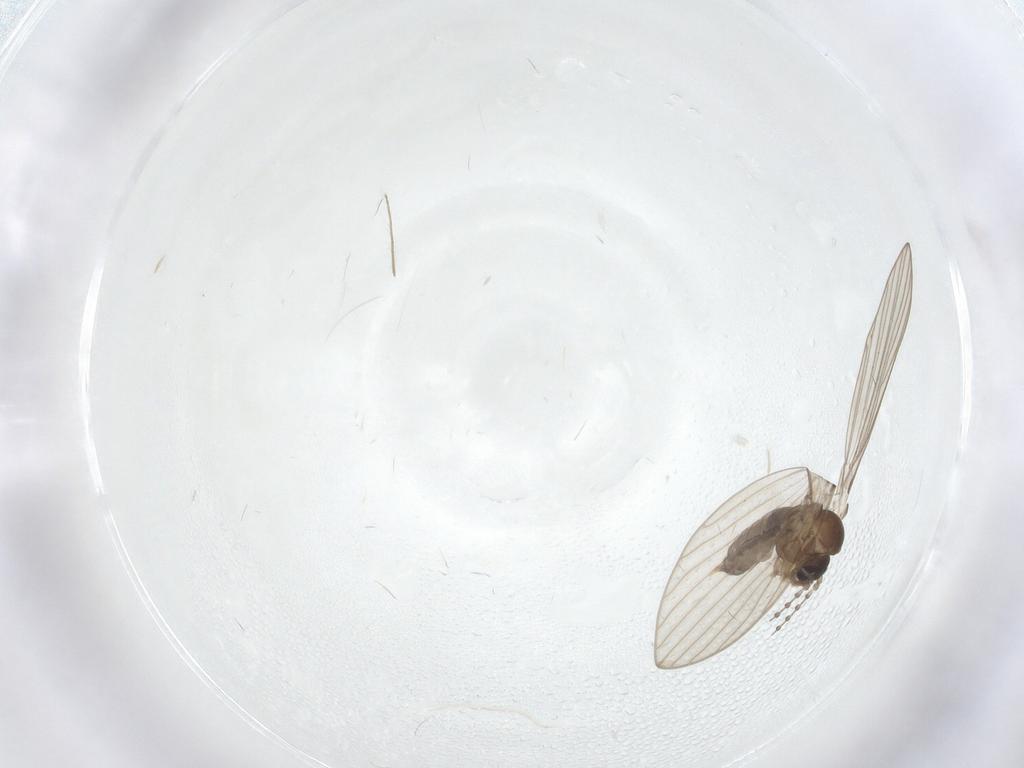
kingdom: Animalia
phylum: Arthropoda
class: Insecta
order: Diptera
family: Psychodidae
